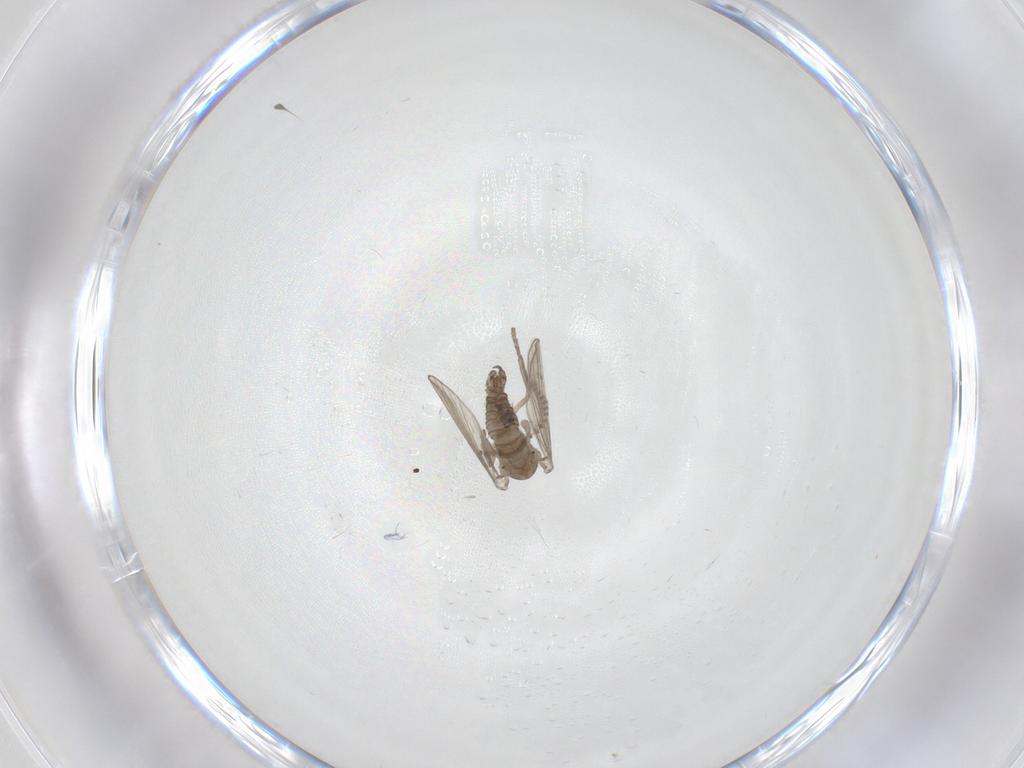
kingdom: Animalia
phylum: Arthropoda
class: Insecta
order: Diptera
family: Psychodidae
